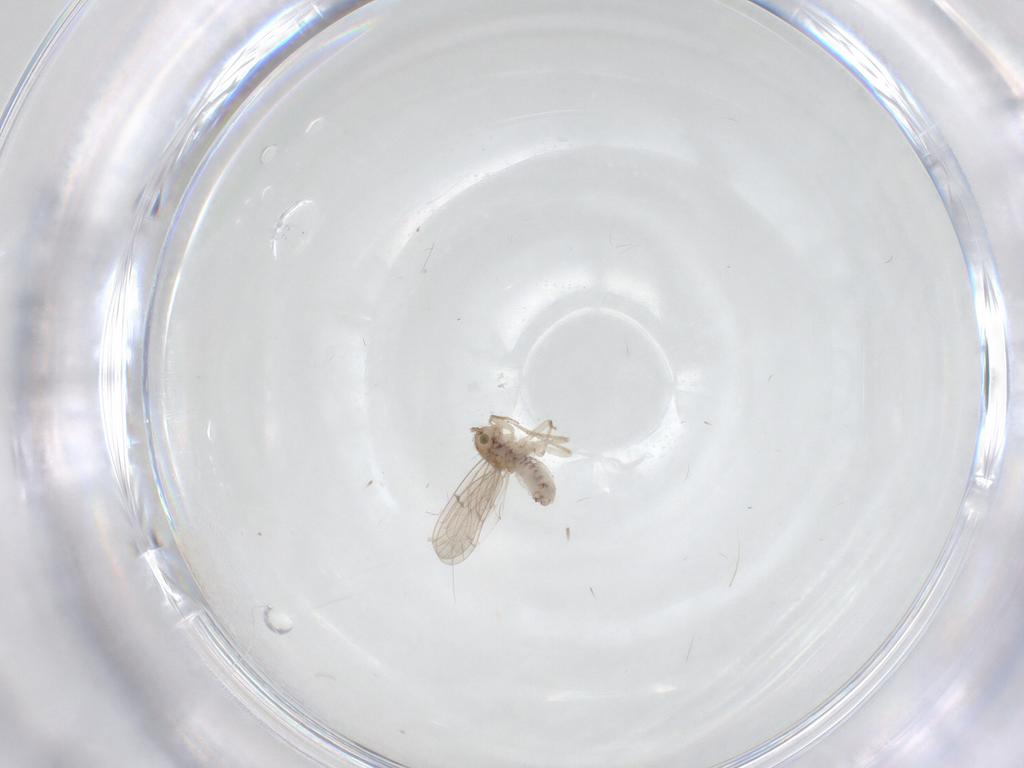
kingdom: Animalia
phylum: Arthropoda
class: Insecta
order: Psocodea
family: Ectopsocidae
